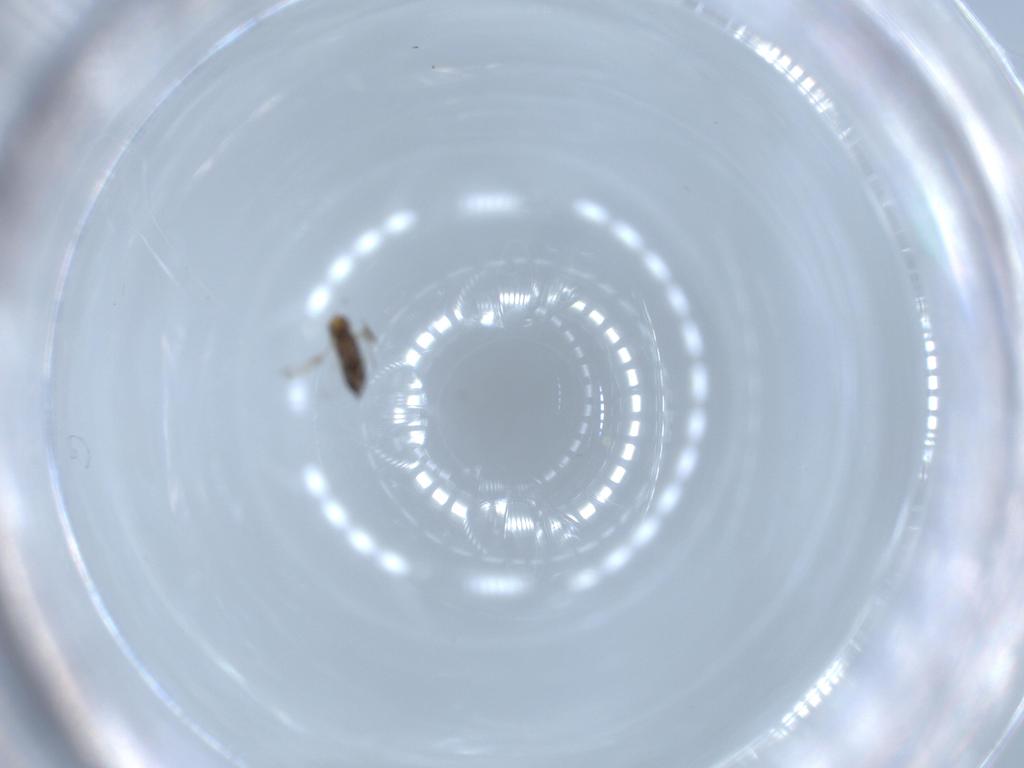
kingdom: Animalia
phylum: Arthropoda
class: Insecta
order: Hymenoptera
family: Signiphoridae
